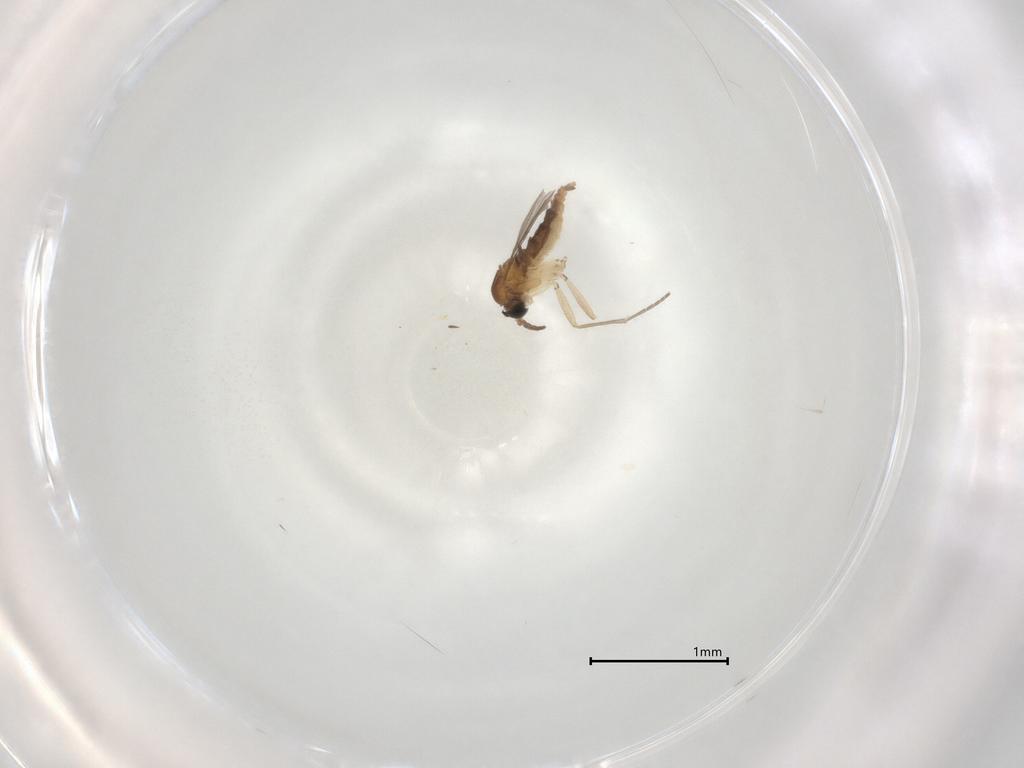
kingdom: Animalia
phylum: Arthropoda
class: Insecta
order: Diptera
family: Sciaridae
